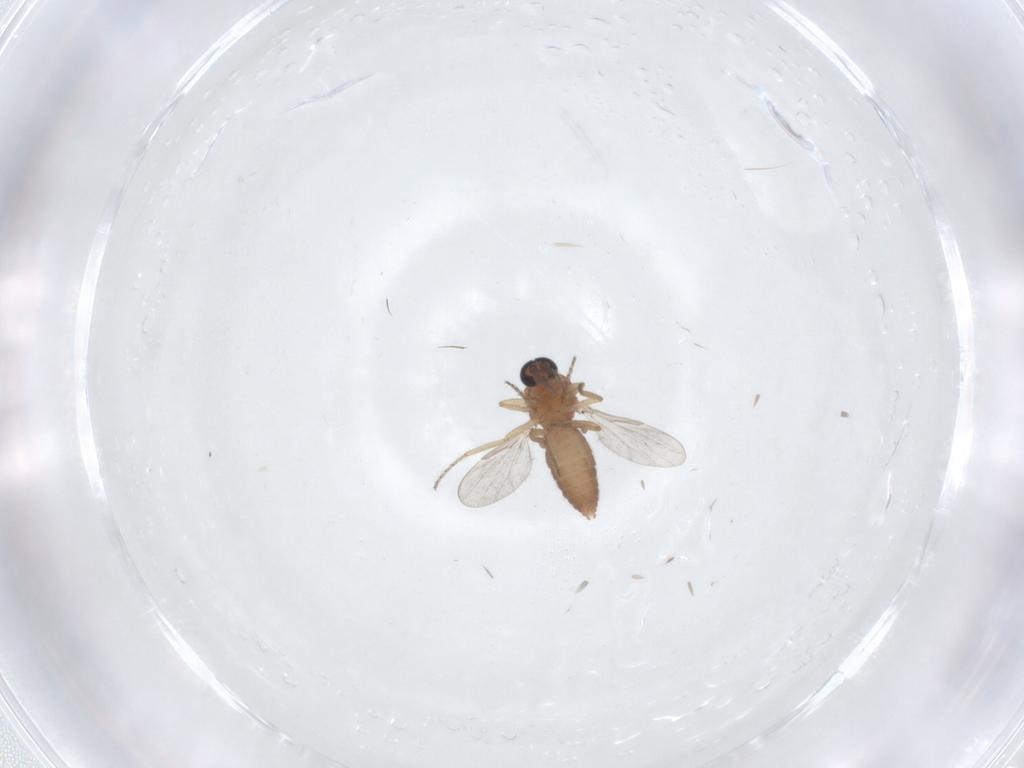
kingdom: Animalia
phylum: Arthropoda
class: Insecta
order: Diptera
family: Ceratopogonidae
